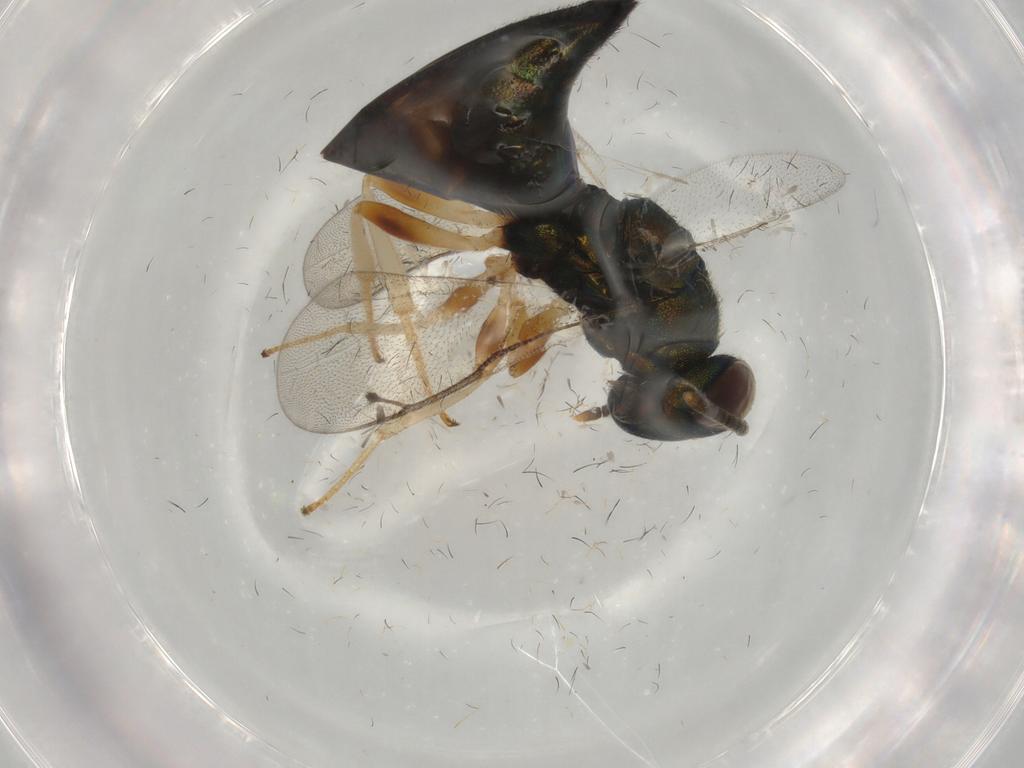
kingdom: Animalia
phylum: Arthropoda
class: Insecta
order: Hymenoptera
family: Pteromalidae
